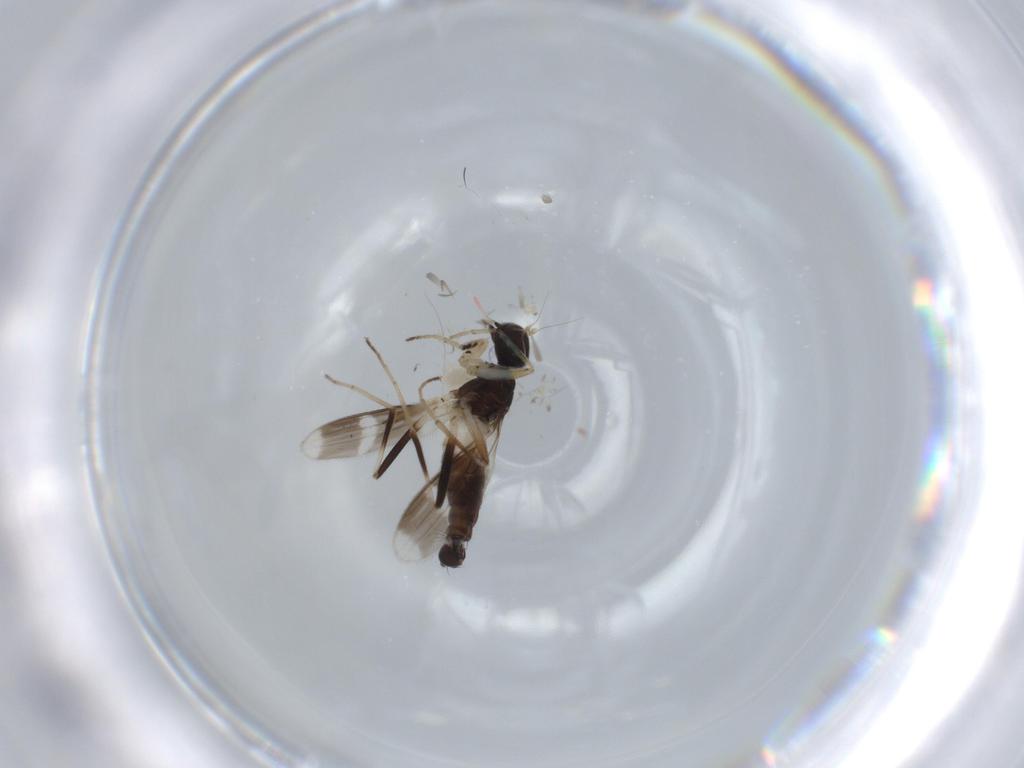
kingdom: Animalia
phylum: Arthropoda
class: Insecta
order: Diptera
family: Hybotidae
